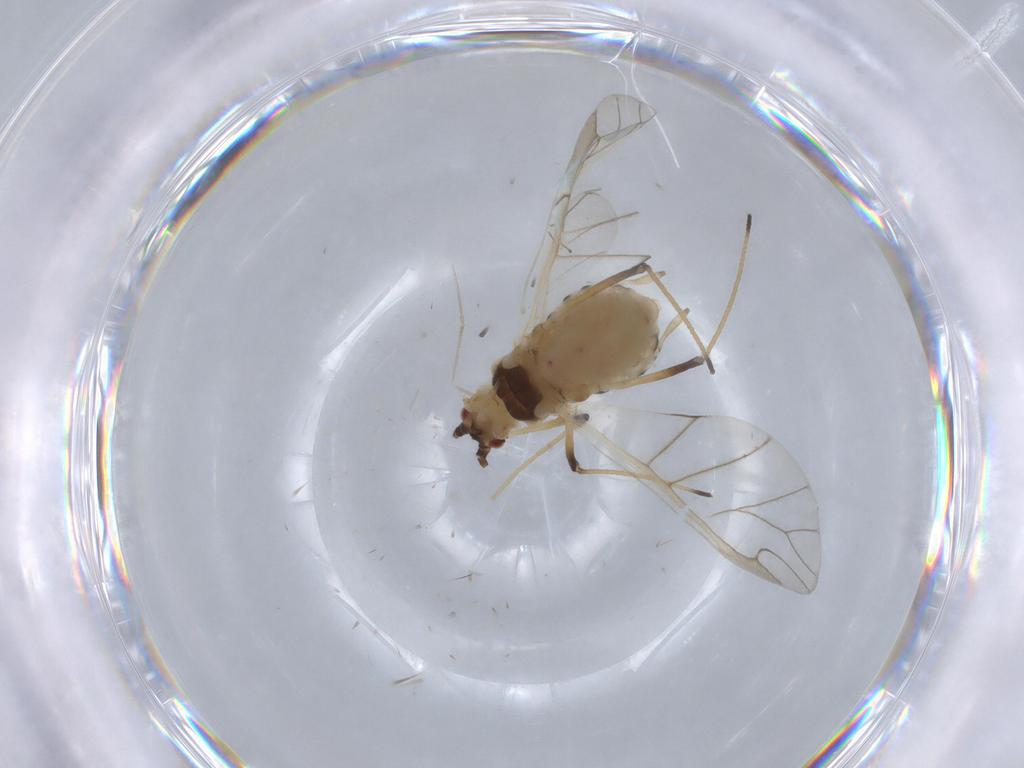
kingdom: Animalia
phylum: Arthropoda
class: Insecta
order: Hemiptera
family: Aphididae
